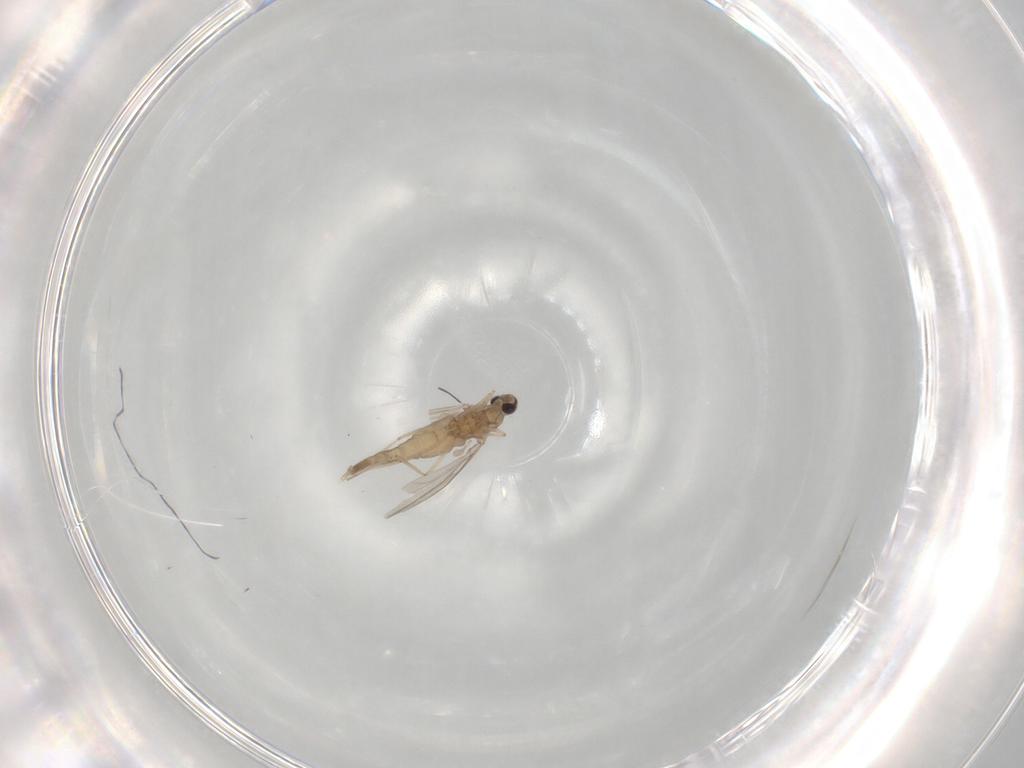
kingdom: Animalia
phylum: Arthropoda
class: Insecta
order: Diptera
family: Cecidomyiidae
